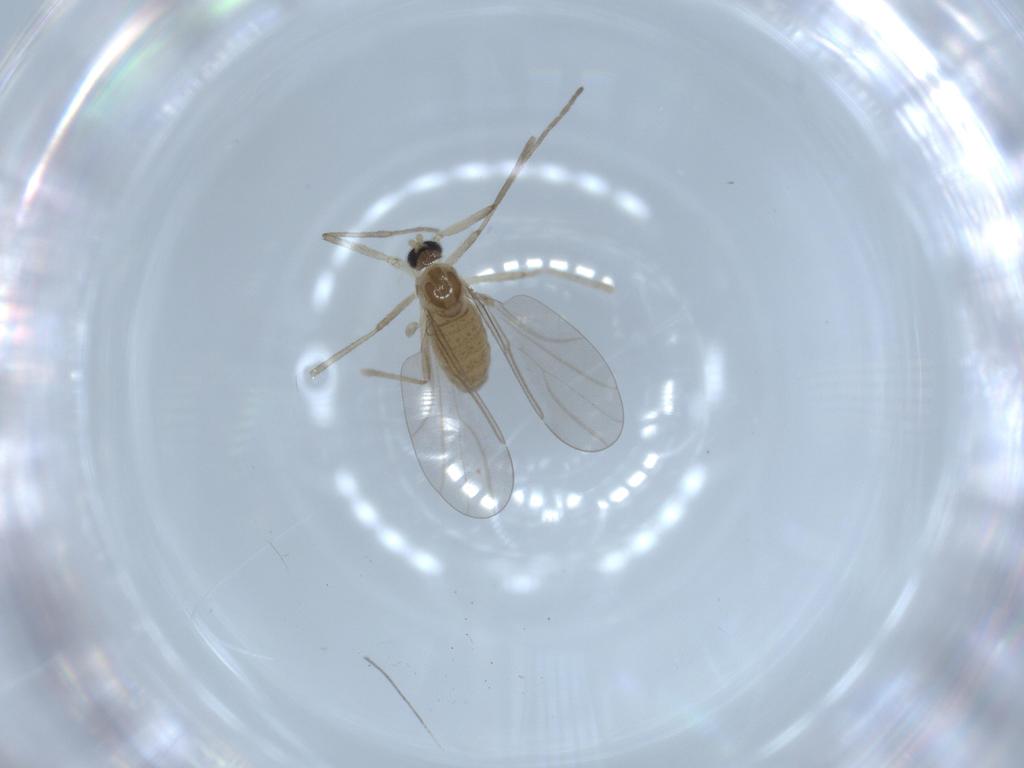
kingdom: Animalia
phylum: Arthropoda
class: Insecta
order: Diptera
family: Cecidomyiidae
